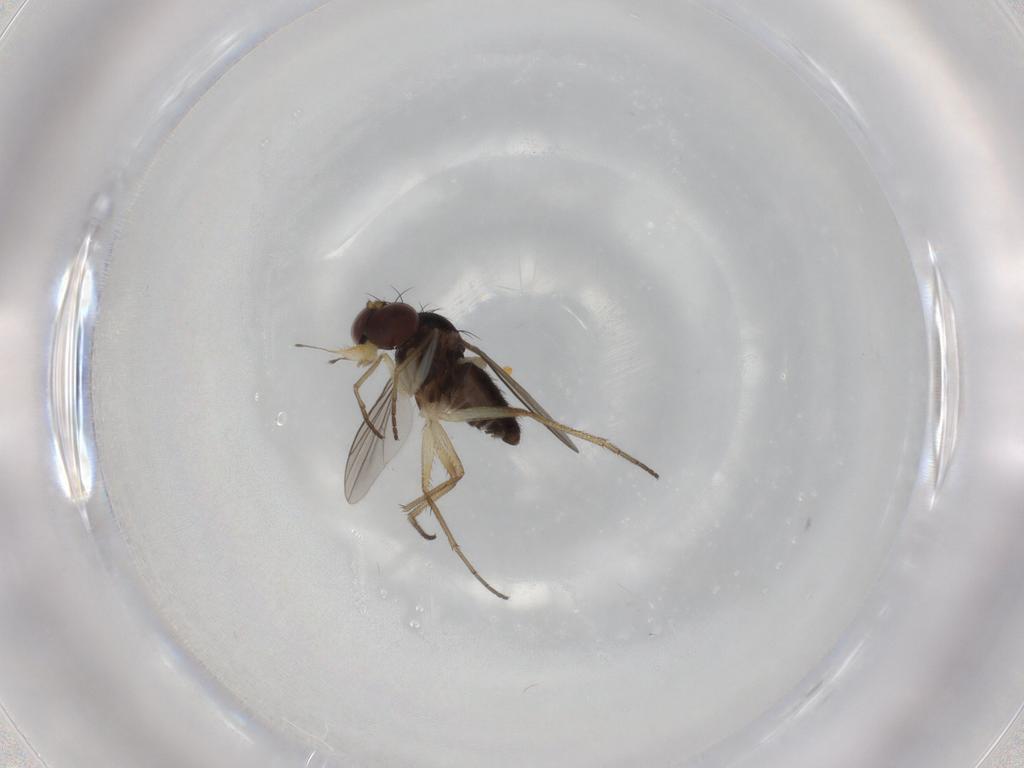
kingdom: Animalia
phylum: Arthropoda
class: Insecta
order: Diptera
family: Dolichopodidae
